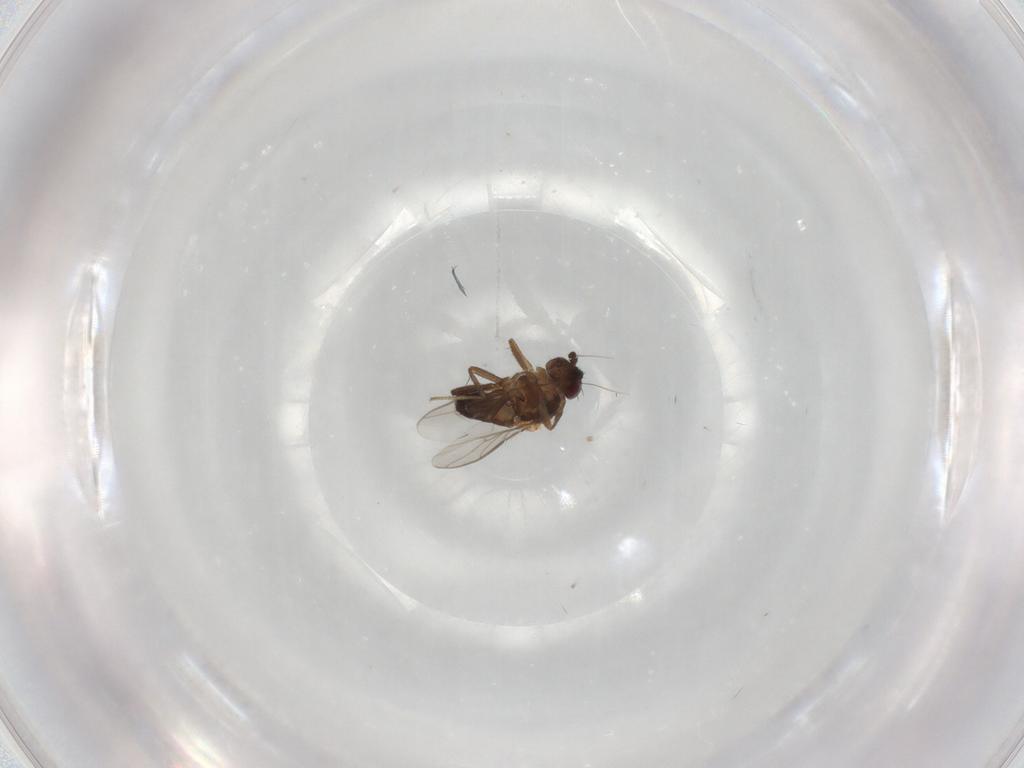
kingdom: Animalia
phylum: Arthropoda
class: Insecta
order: Diptera
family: Sphaeroceridae
